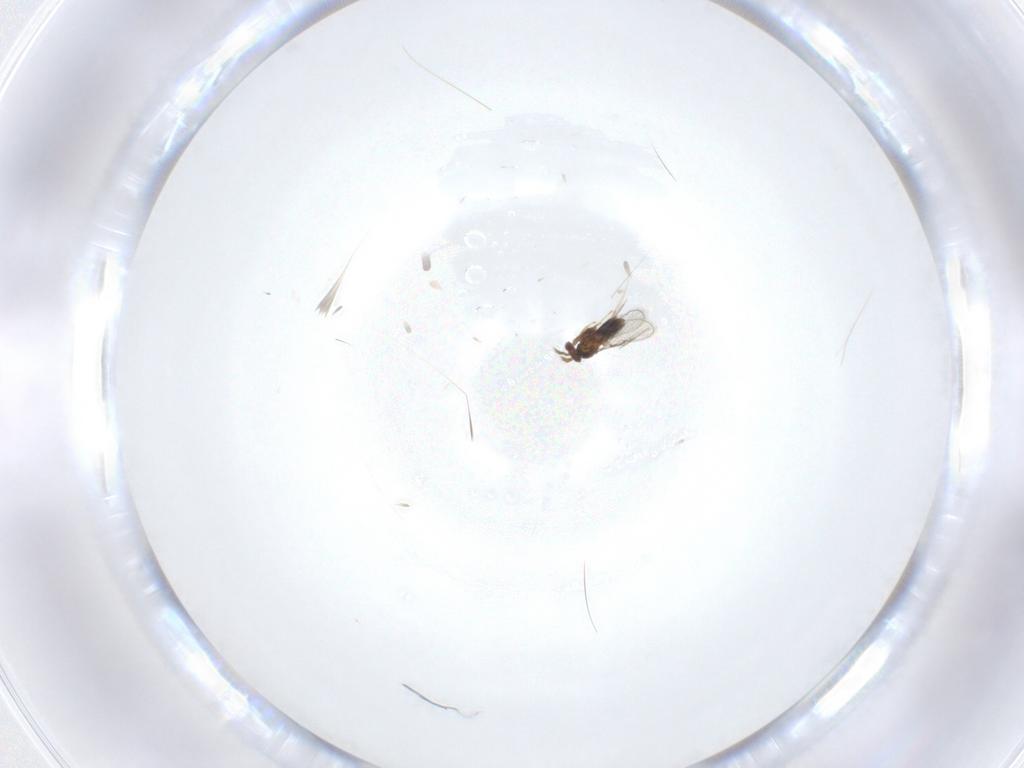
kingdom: Animalia
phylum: Arthropoda
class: Insecta
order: Hymenoptera
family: Trichogrammatidae
